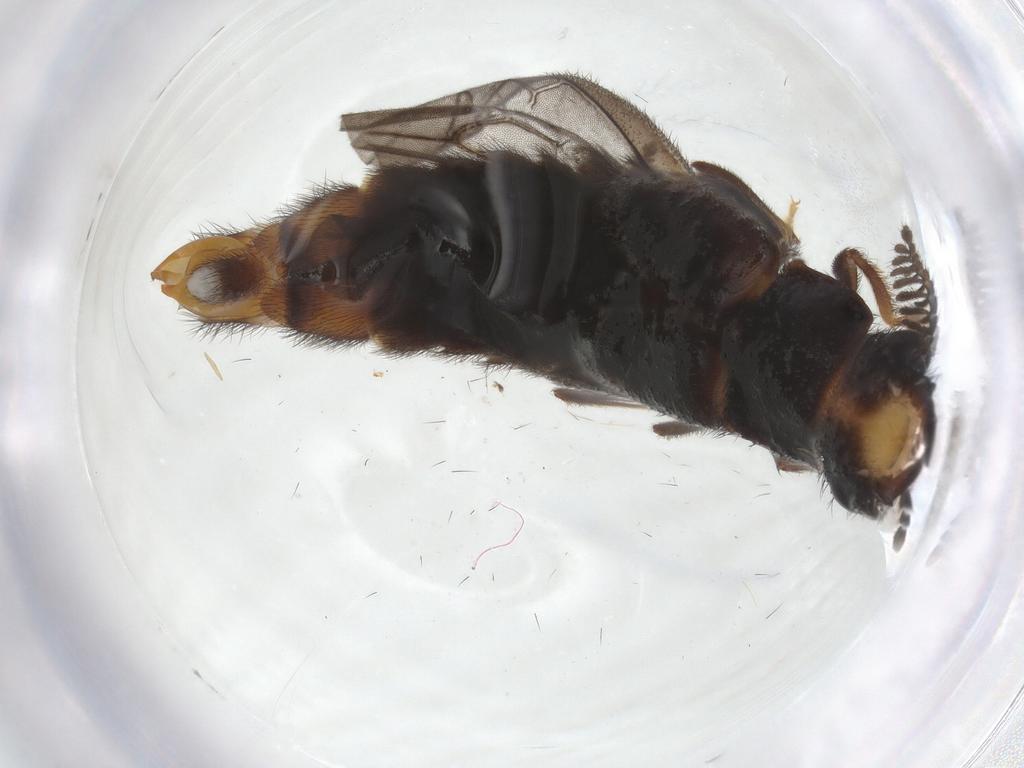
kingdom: Animalia
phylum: Arthropoda
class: Insecta
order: Coleoptera
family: Phengodidae
